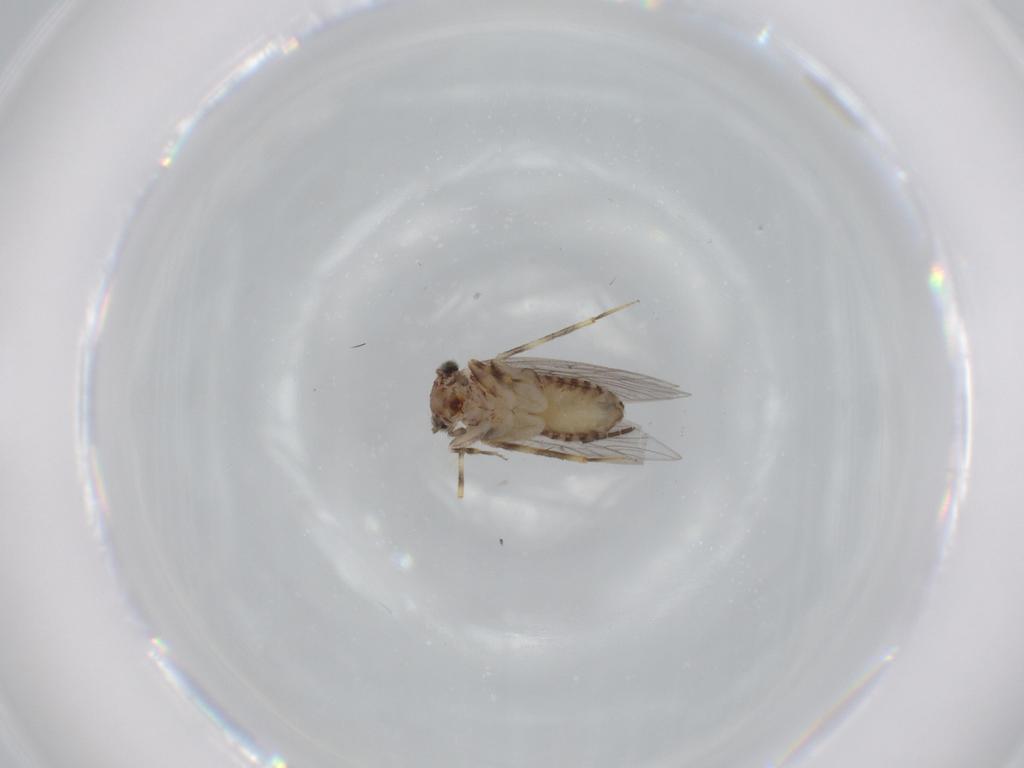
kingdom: Animalia
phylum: Arthropoda
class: Insecta
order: Psocodea
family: Lepidopsocidae
